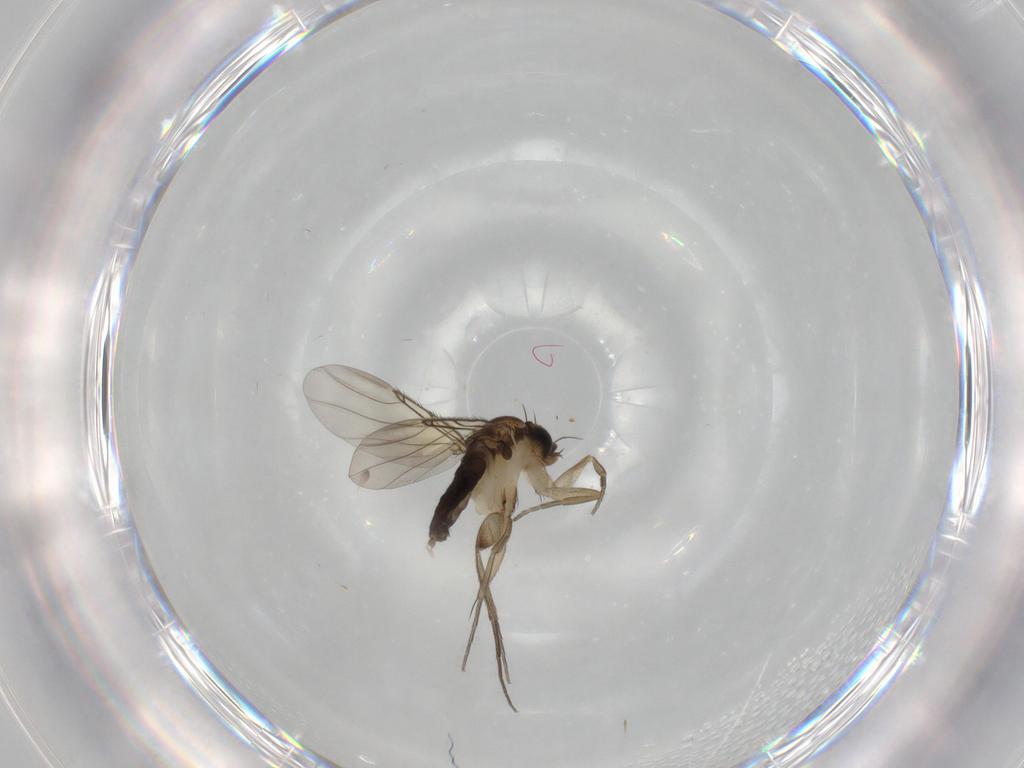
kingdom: Animalia
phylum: Arthropoda
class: Insecta
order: Diptera
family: Phoridae
